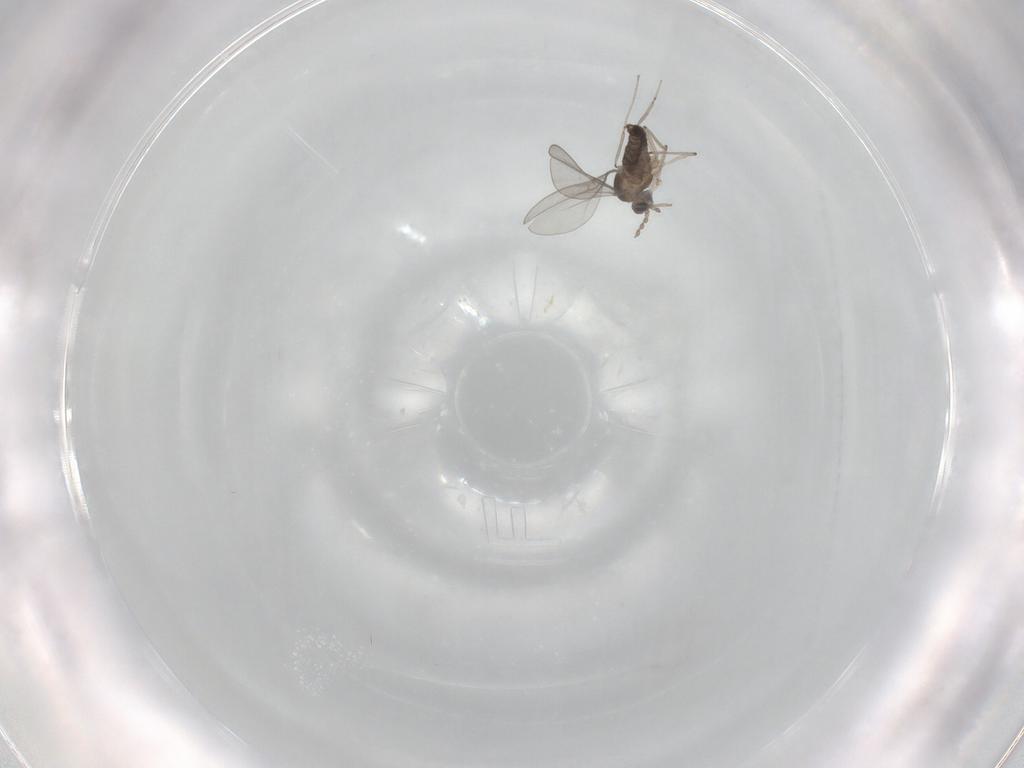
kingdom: Animalia
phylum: Arthropoda
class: Insecta
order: Diptera
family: Cecidomyiidae
